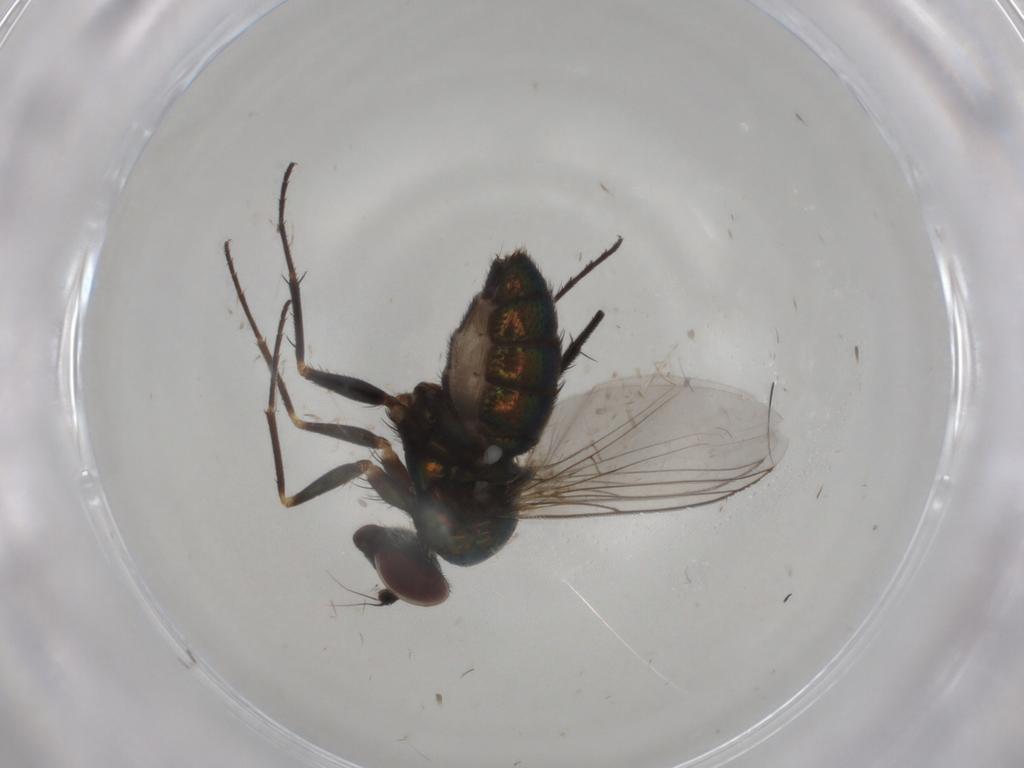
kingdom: Animalia
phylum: Arthropoda
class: Insecta
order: Diptera
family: Dolichopodidae
